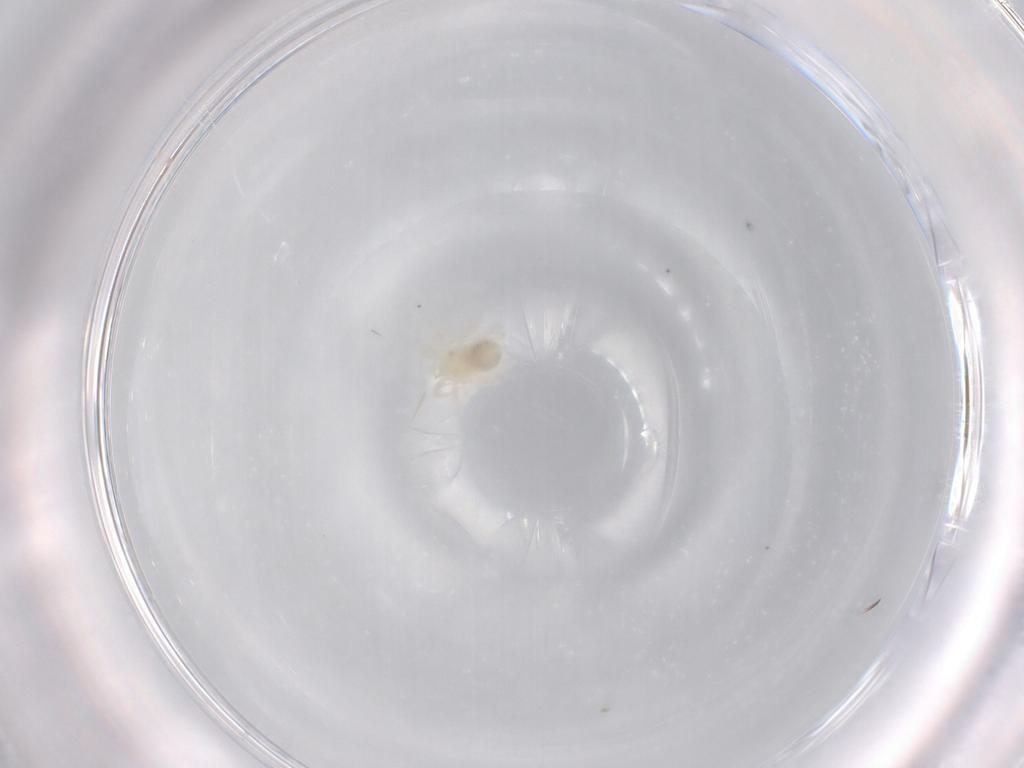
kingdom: Animalia
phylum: Arthropoda
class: Arachnida
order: Trombidiformes
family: Erythracaridae
